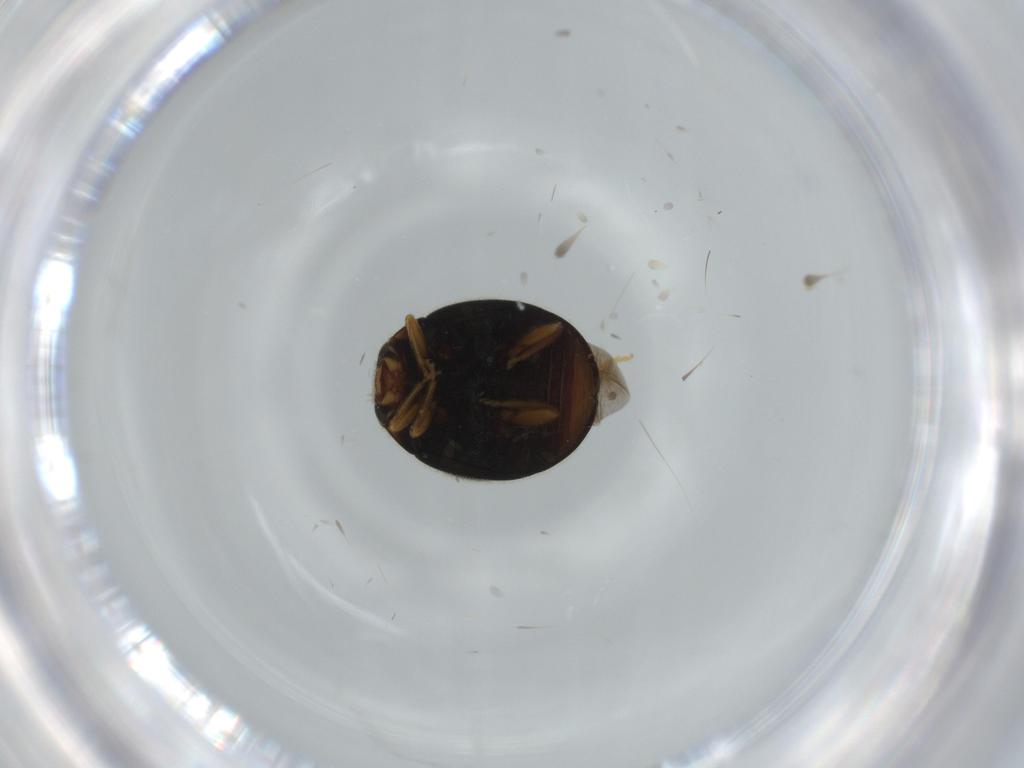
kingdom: Animalia
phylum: Arthropoda
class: Insecta
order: Coleoptera
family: Coccinellidae
